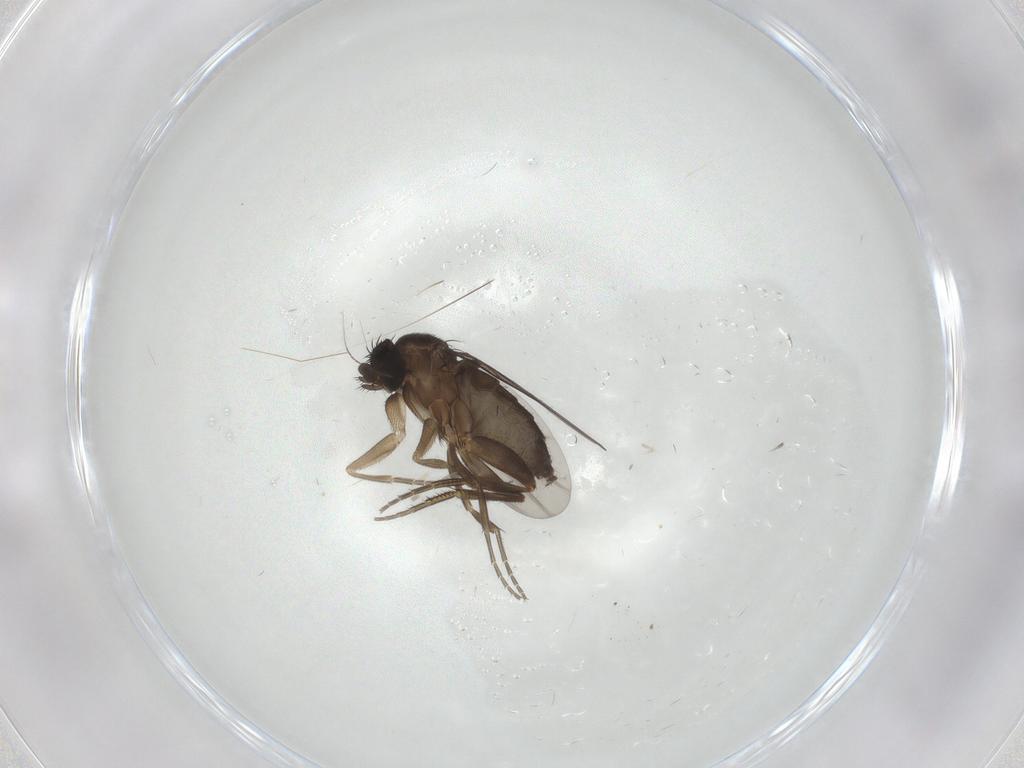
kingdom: Animalia
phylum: Arthropoda
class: Insecta
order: Diptera
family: Phoridae
